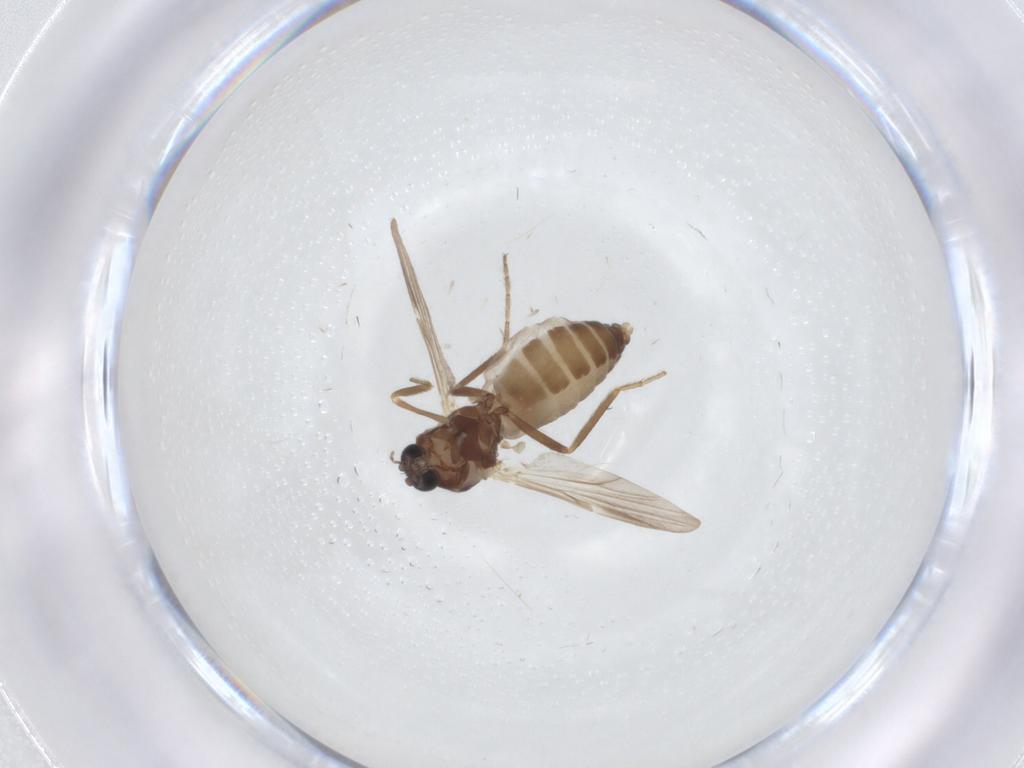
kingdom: Animalia
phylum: Arthropoda
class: Insecta
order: Diptera
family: Ceratopogonidae
